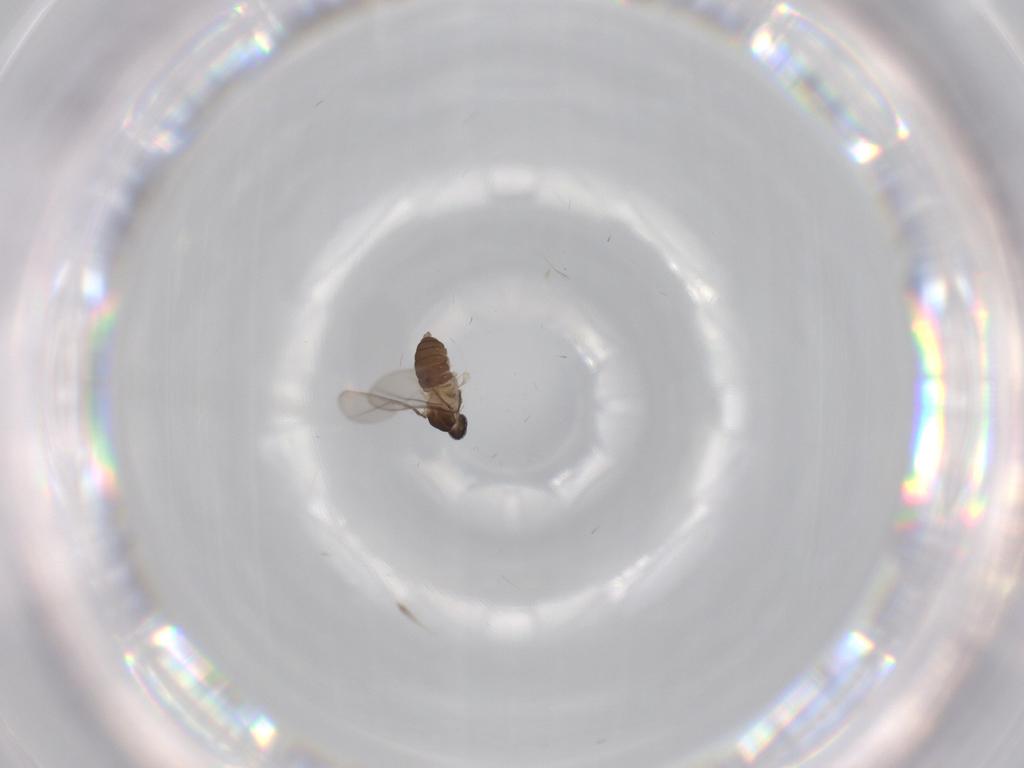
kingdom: Animalia
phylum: Arthropoda
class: Insecta
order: Diptera
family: Cecidomyiidae
